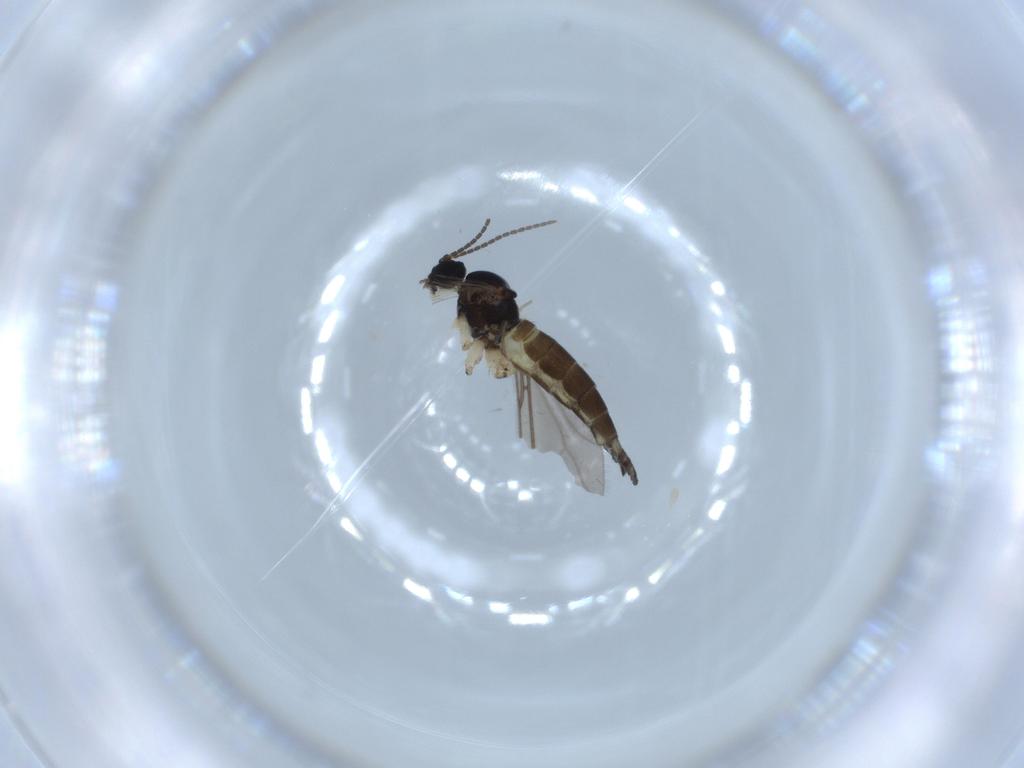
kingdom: Animalia
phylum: Arthropoda
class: Insecta
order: Diptera
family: Sciaridae
